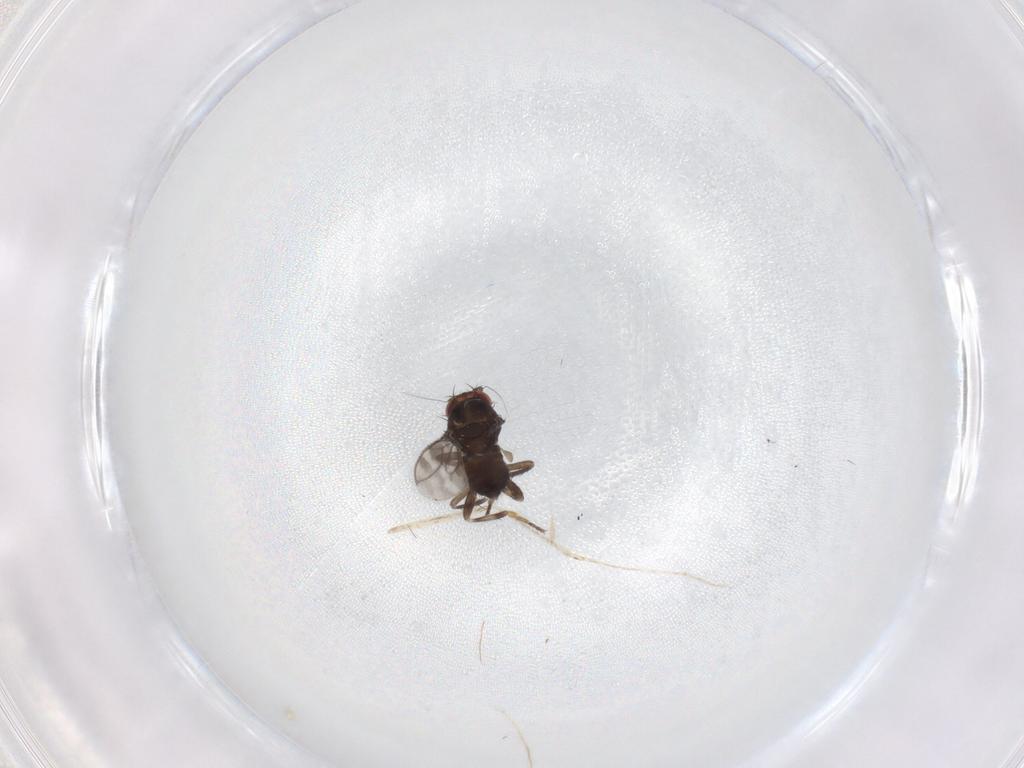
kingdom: Animalia
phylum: Arthropoda
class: Insecta
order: Diptera
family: Sphaeroceridae
